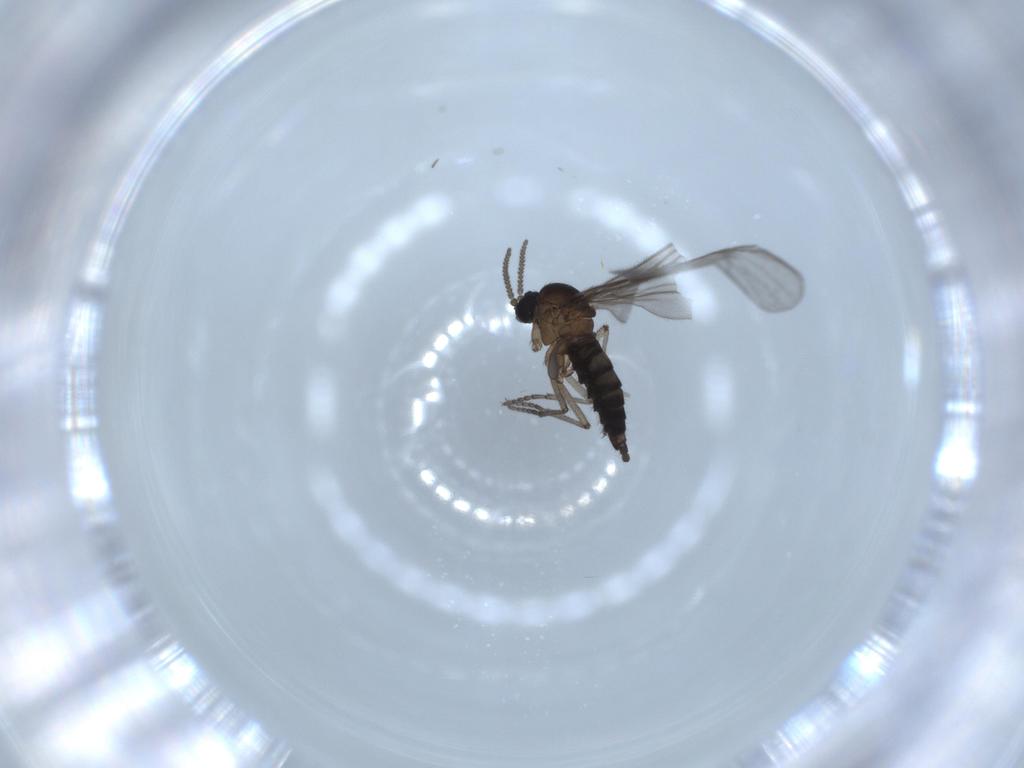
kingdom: Animalia
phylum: Arthropoda
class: Insecta
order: Diptera
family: Sciaridae
